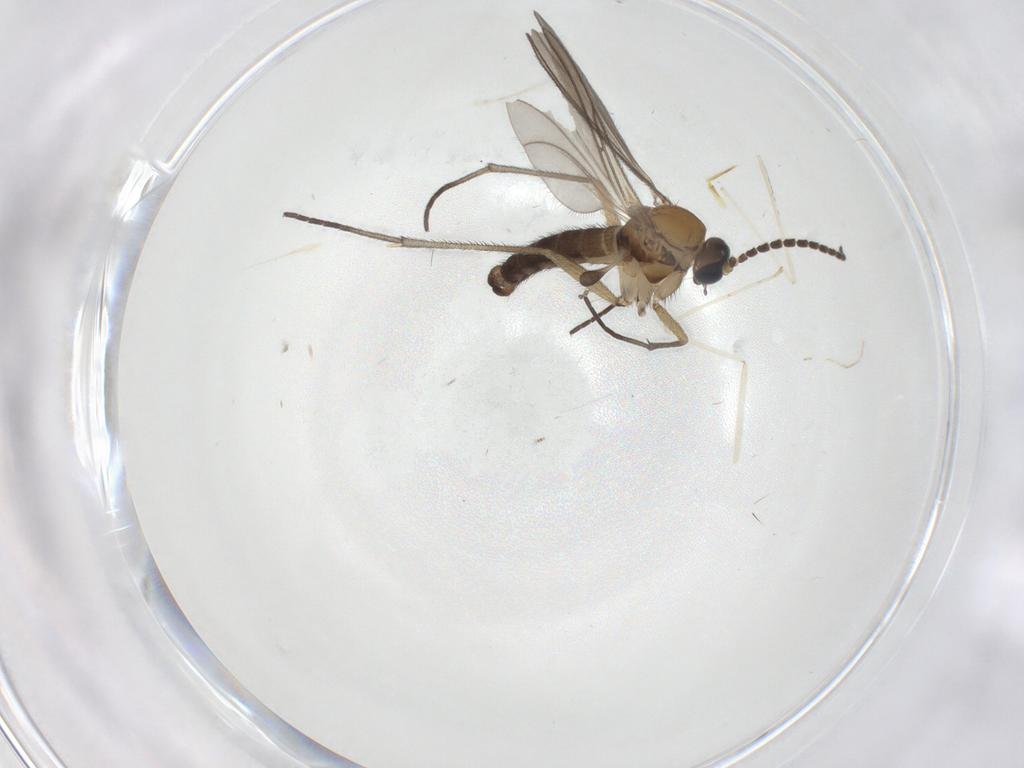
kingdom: Animalia
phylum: Arthropoda
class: Insecta
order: Diptera
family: Sciaridae
